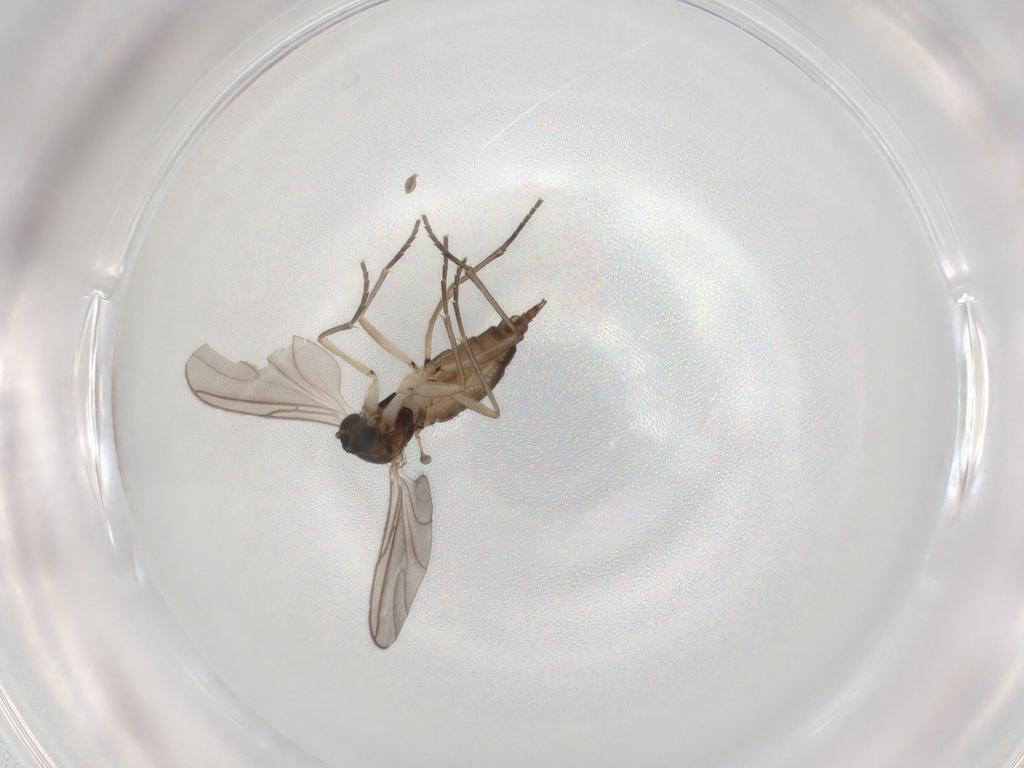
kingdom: Animalia
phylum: Arthropoda
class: Insecta
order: Diptera
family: Sciaridae
